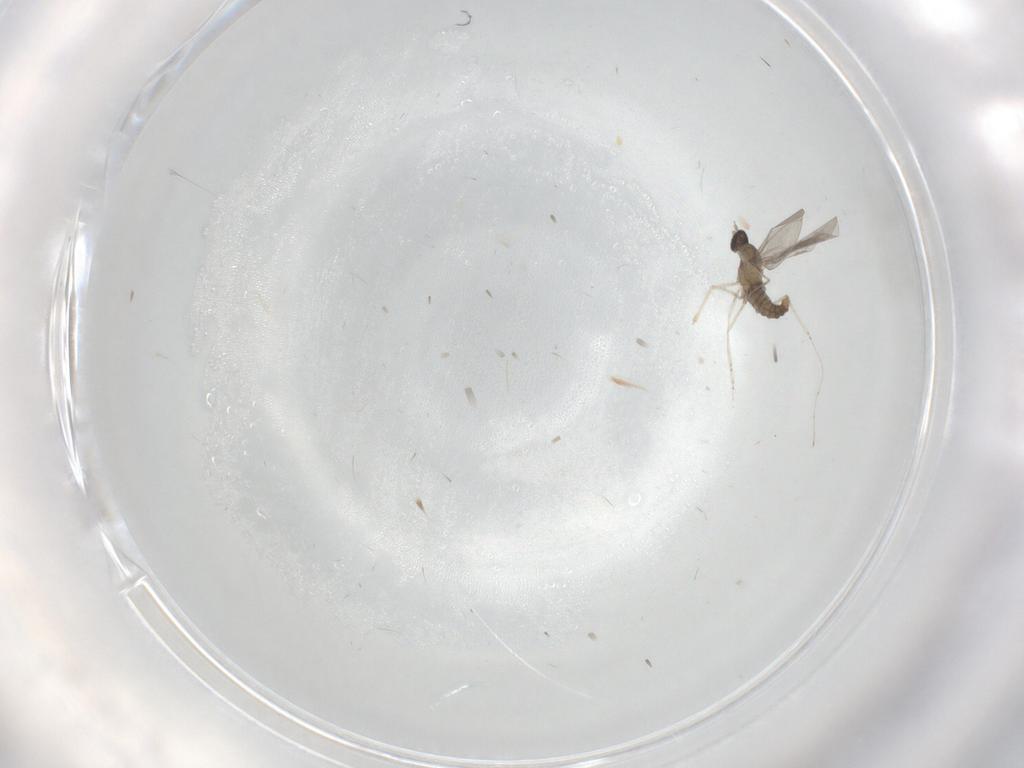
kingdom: Animalia
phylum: Arthropoda
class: Insecta
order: Diptera
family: Cecidomyiidae
